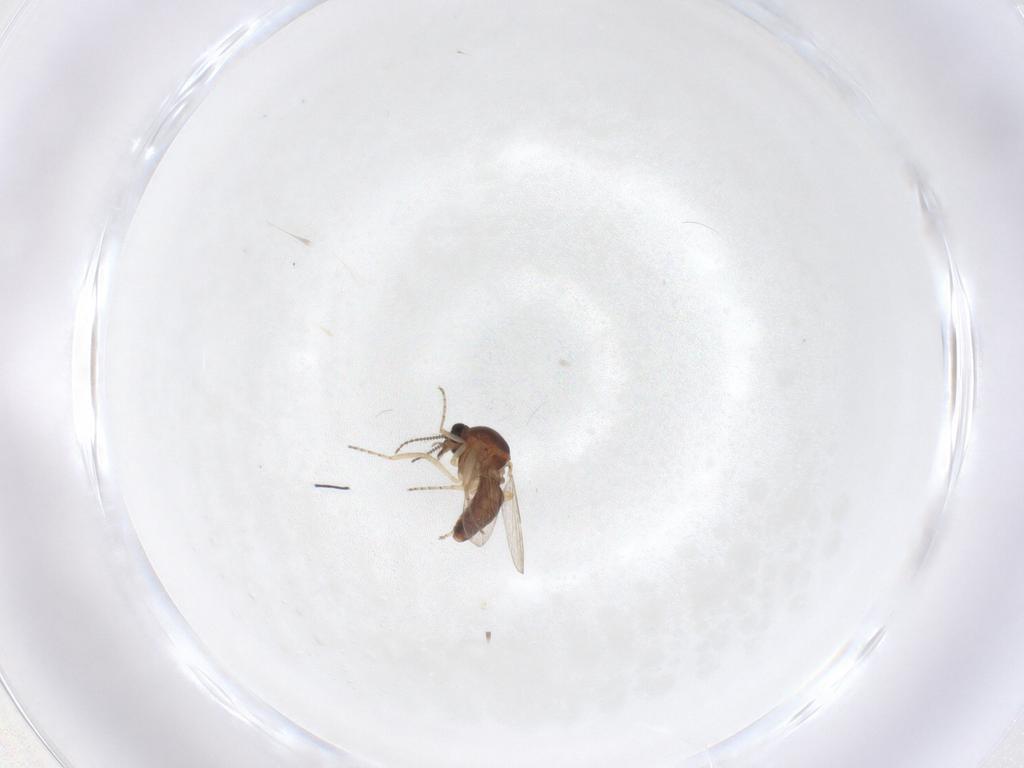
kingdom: Animalia
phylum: Arthropoda
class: Insecta
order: Diptera
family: Ceratopogonidae
